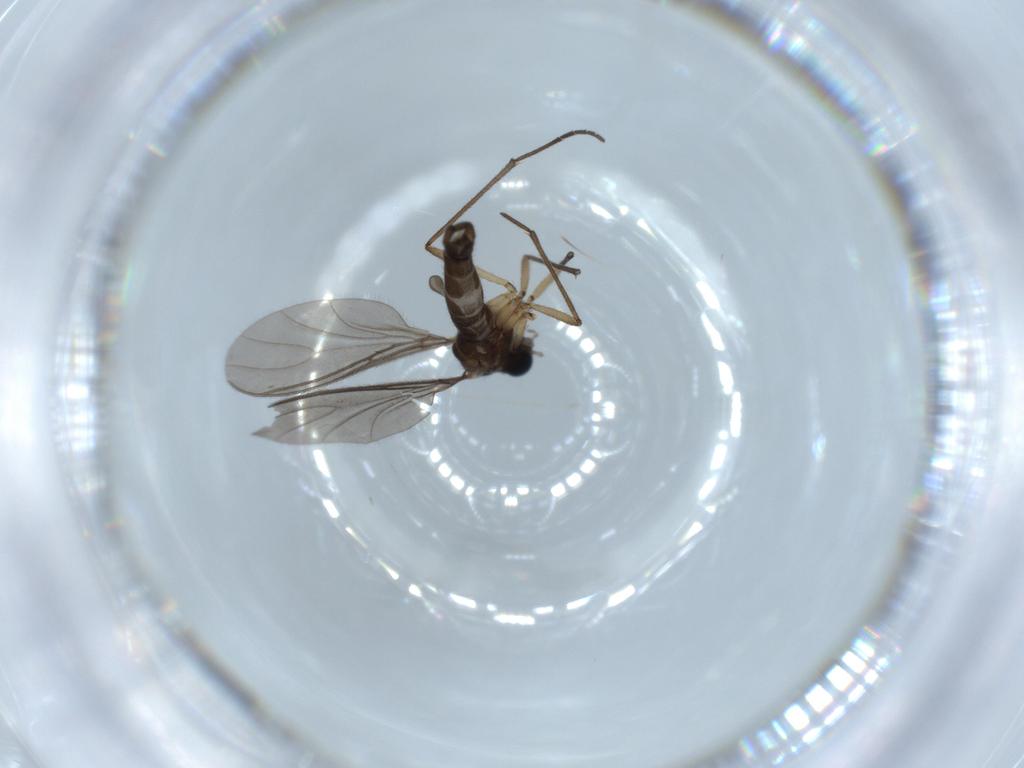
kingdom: Animalia
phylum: Arthropoda
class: Insecta
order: Diptera
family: Sciaridae
